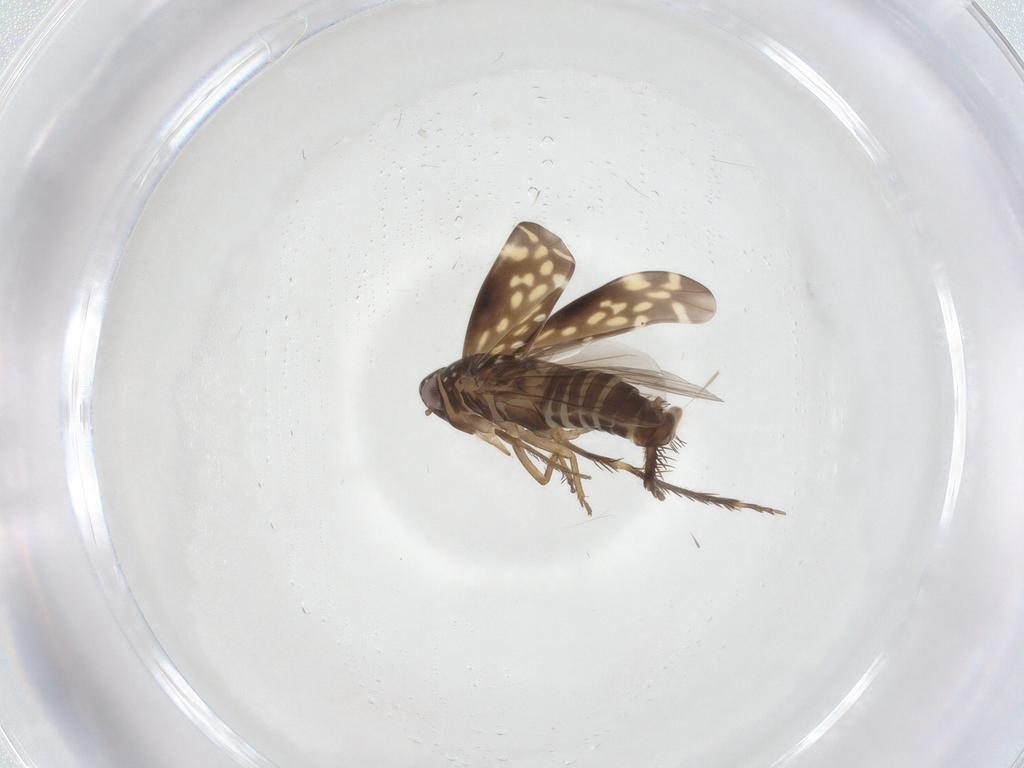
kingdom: Animalia
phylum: Arthropoda
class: Insecta
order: Hemiptera
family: Cicadellidae
